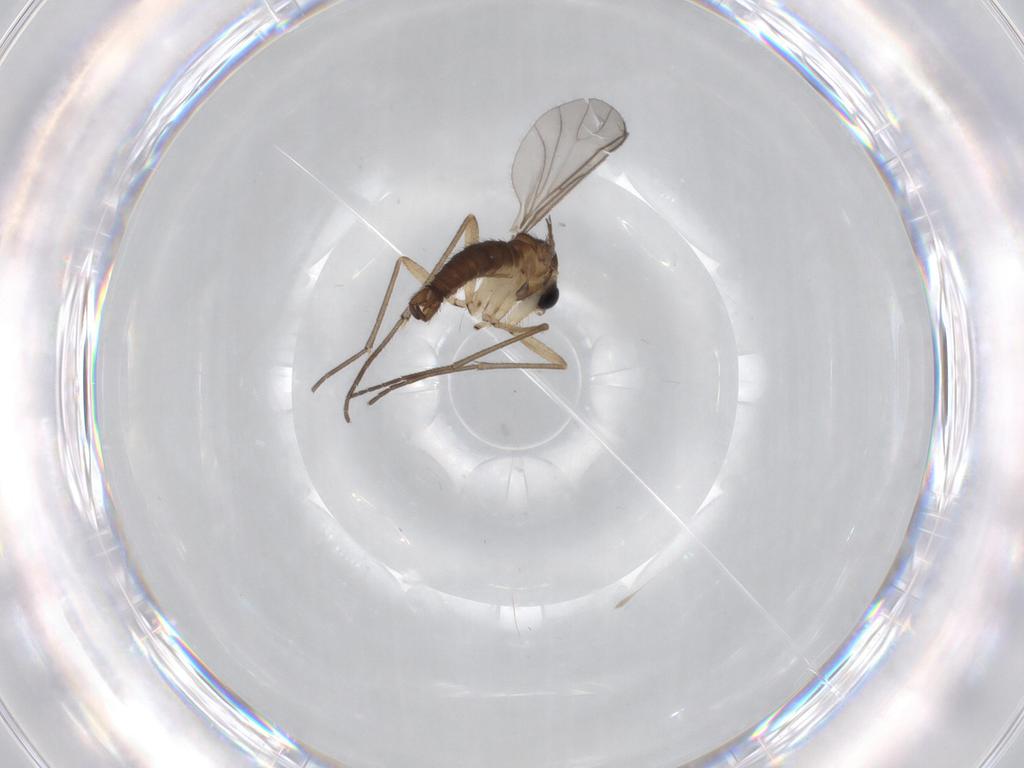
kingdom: Animalia
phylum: Arthropoda
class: Insecta
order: Diptera
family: Sciaridae
